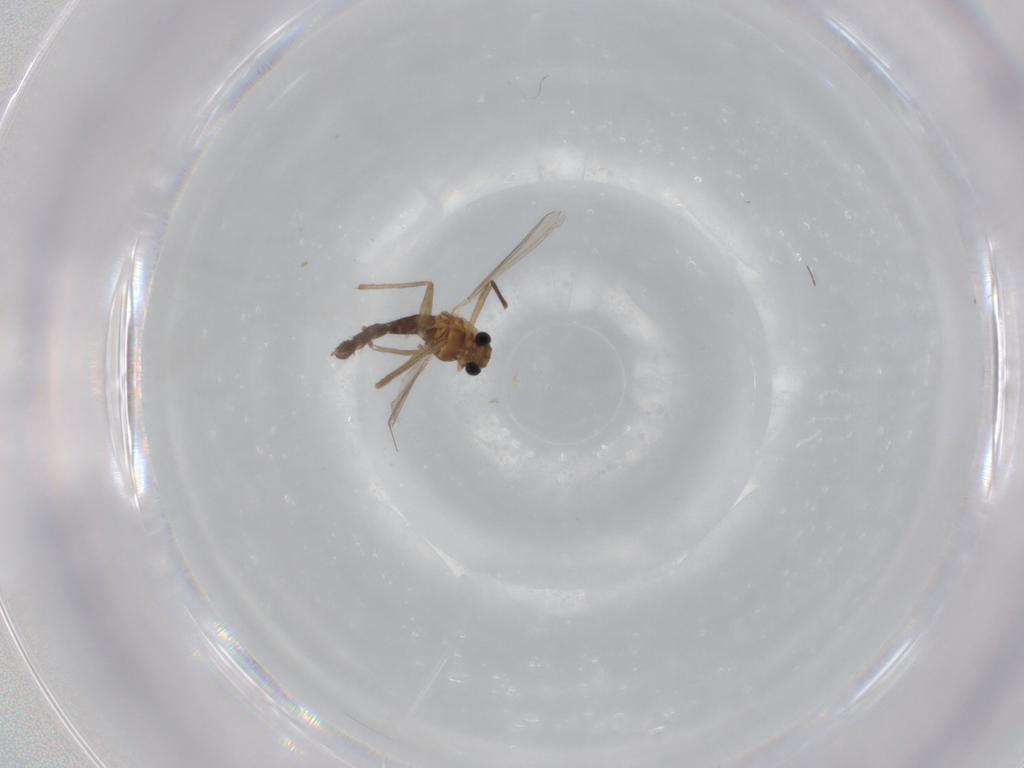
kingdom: Animalia
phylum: Arthropoda
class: Insecta
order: Diptera
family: Chironomidae
